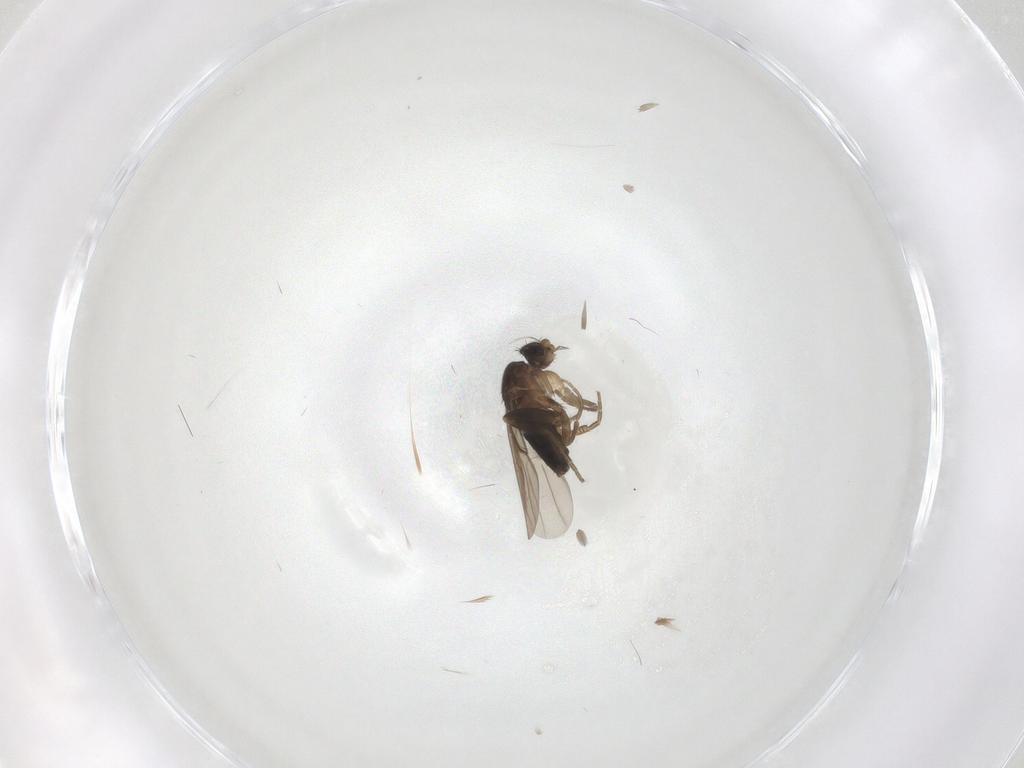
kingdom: Animalia
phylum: Arthropoda
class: Insecta
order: Diptera
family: Phoridae
